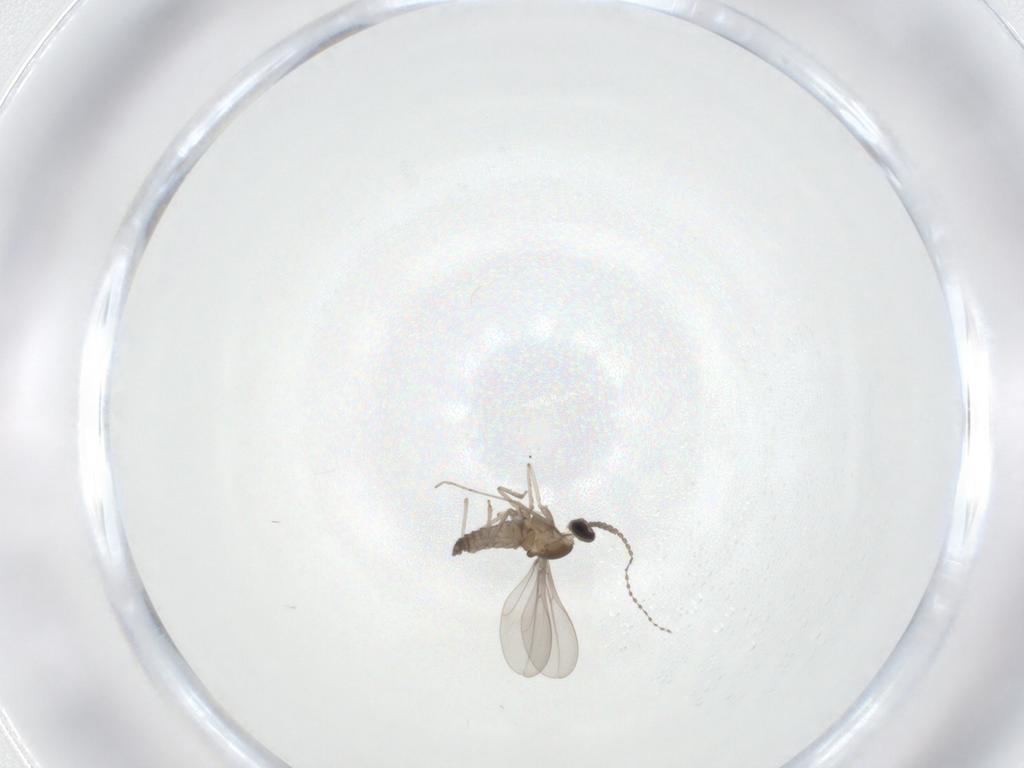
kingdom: Animalia
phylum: Arthropoda
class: Insecta
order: Diptera
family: Cecidomyiidae
